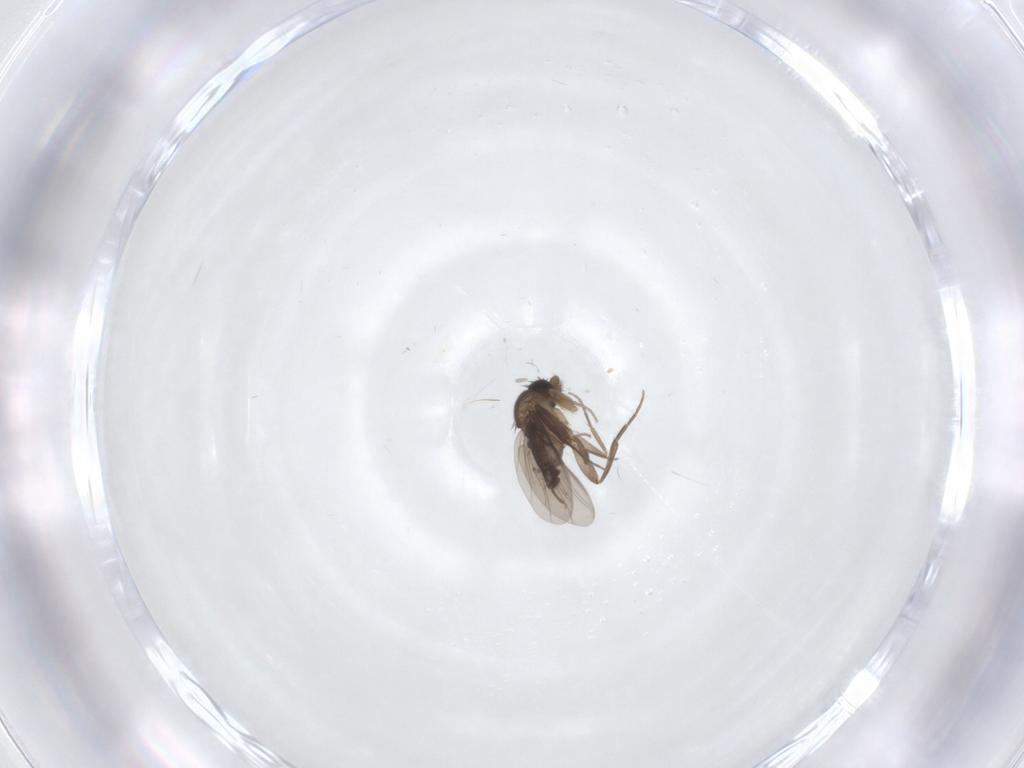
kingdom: Animalia
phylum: Arthropoda
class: Insecta
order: Diptera
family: Phoridae
